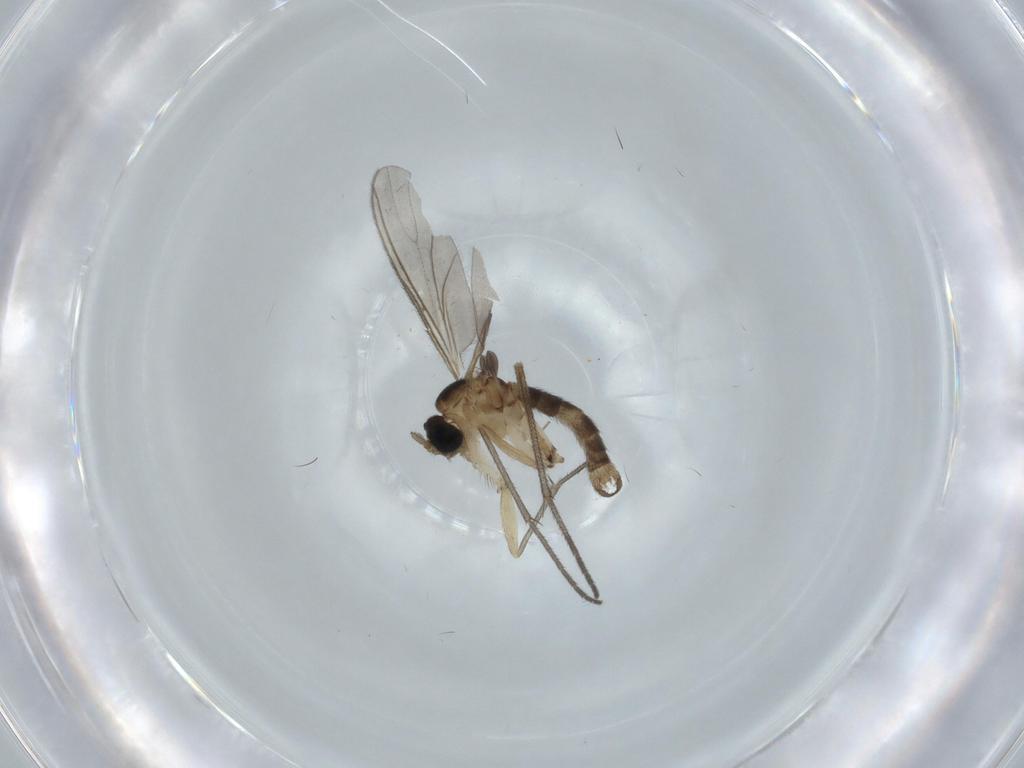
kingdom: Animalia
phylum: Arthropoda
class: Insecta
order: Diptera
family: Sciaridae
